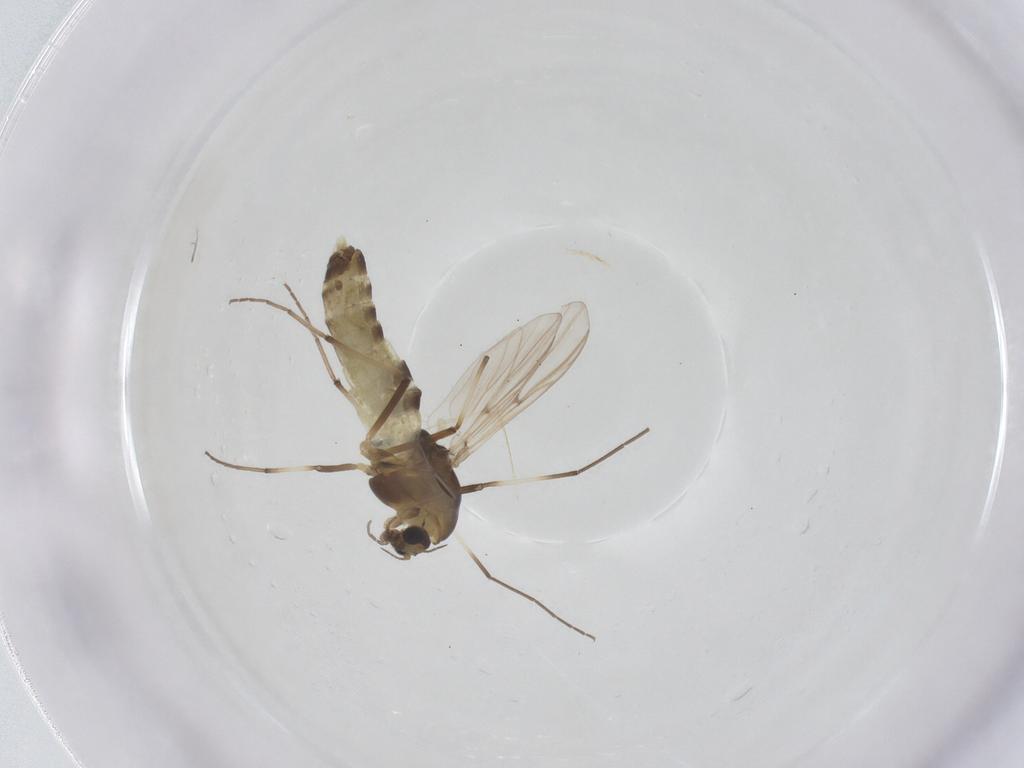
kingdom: Animalia
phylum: Arthropoda
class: Insecta
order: Diptera
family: Chironomidae
